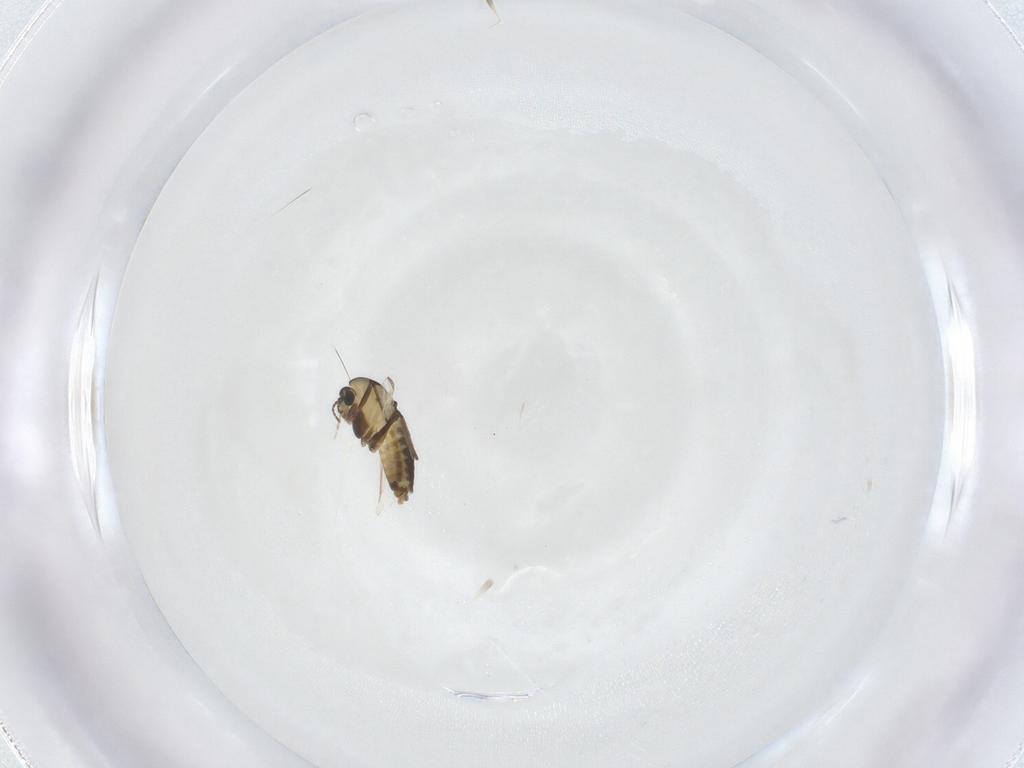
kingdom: Animalia
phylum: Arthropoda
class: Insecta
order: Diptera
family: Chironomidae
